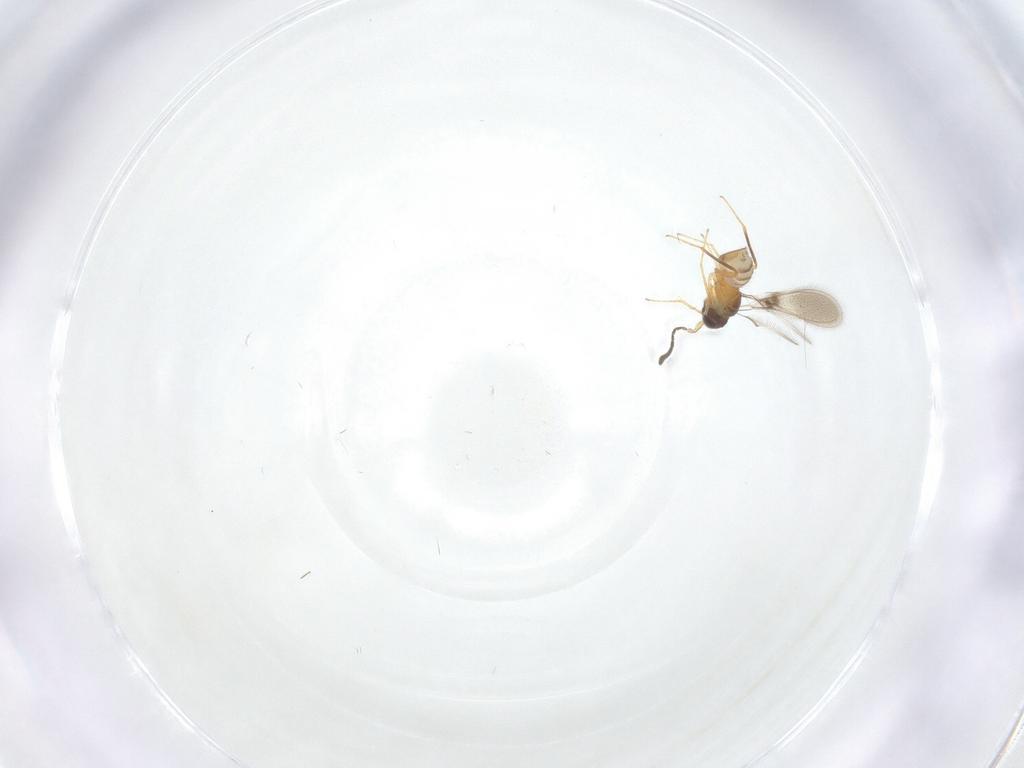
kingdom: Animalia
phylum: Arthropoda
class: Insecta
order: Hymenoptera
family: Mymaridae
